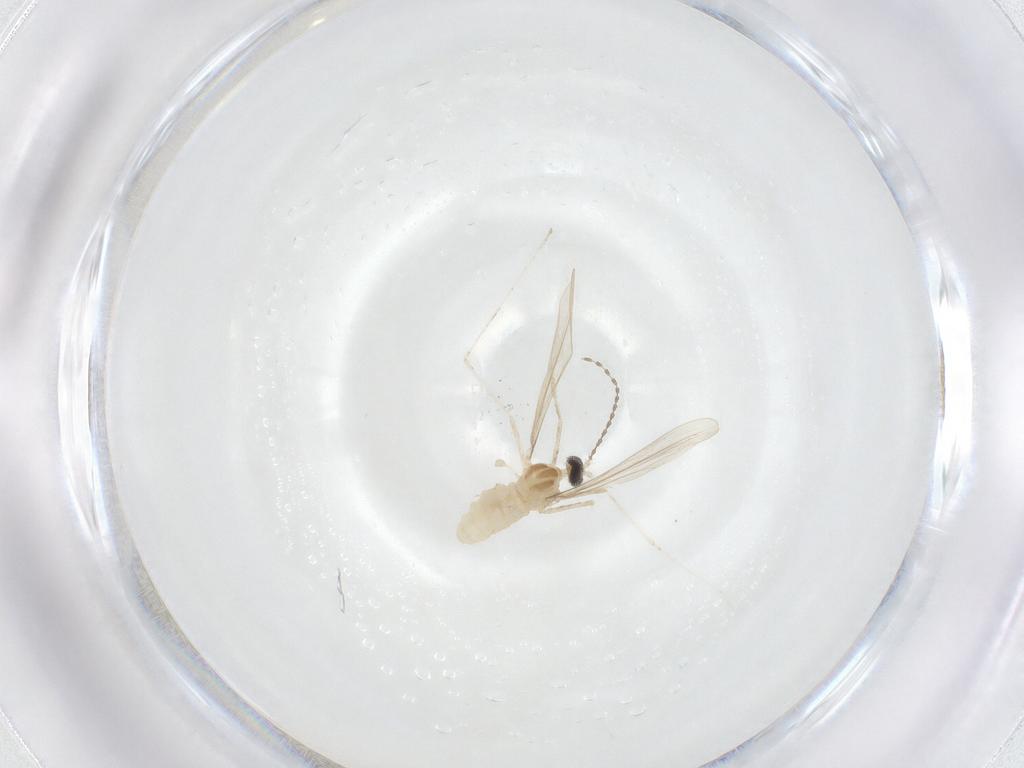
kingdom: Animalia
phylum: Arthropoda
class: Insecta
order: Diptera
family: Cecidomyiidae
